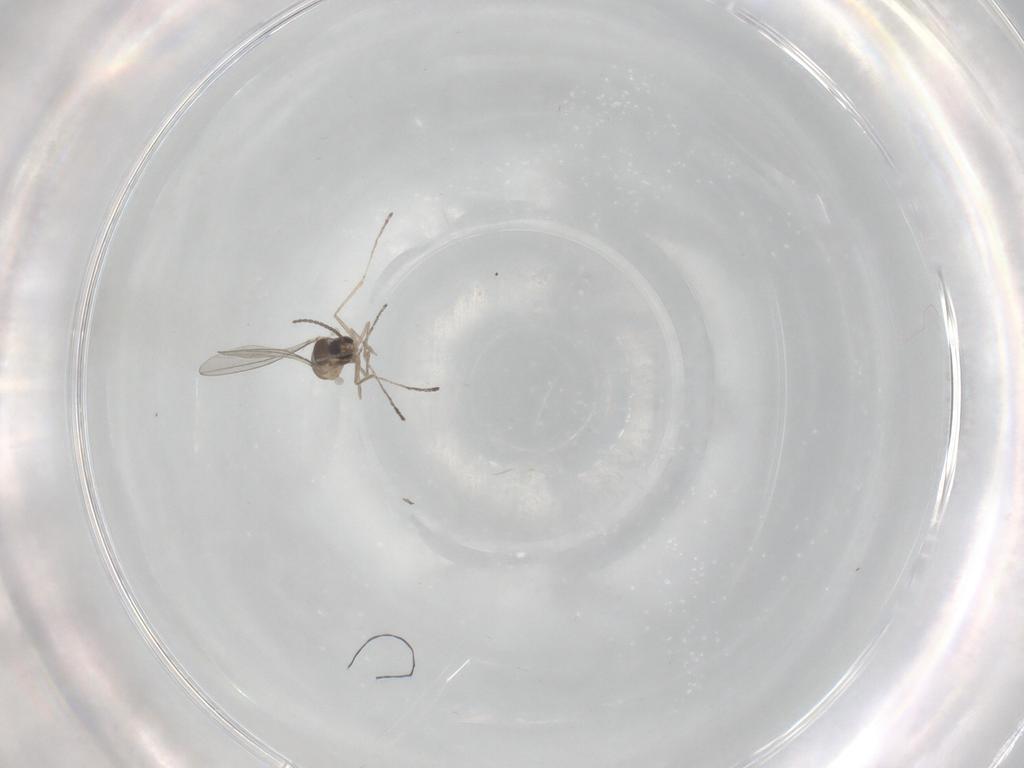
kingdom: Animalia
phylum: Arthropoda
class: Insecta
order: Diptera
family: Cecidomyiidae
